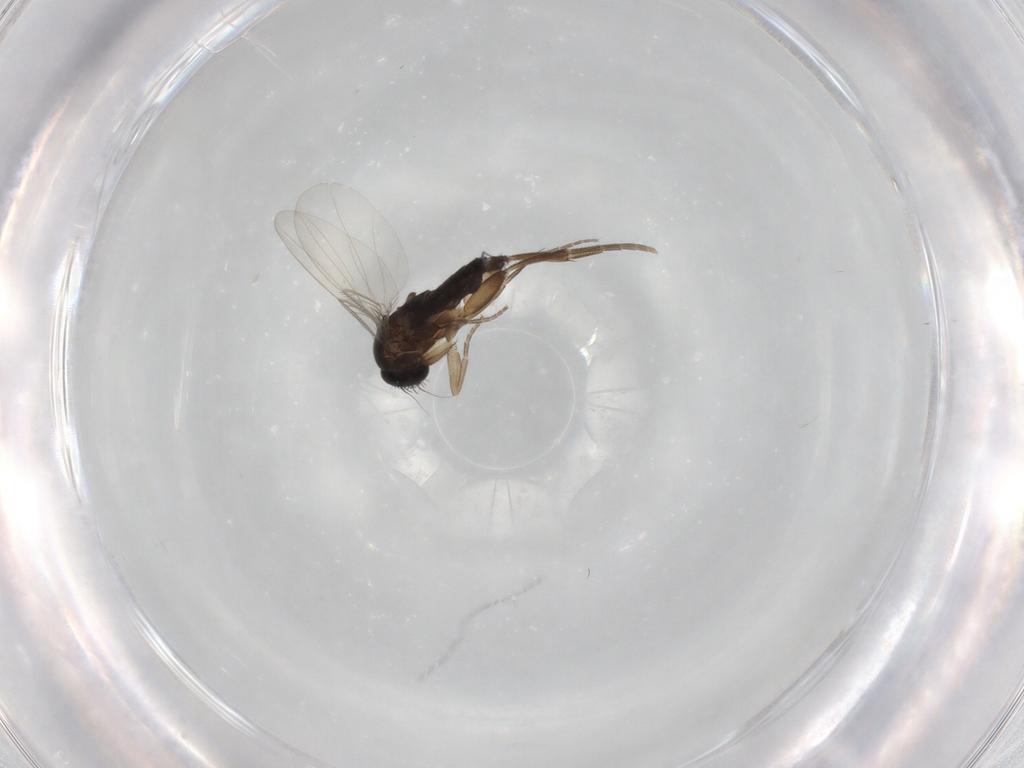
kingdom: Animalia
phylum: Arthropoda
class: Insecta
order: Diptera
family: Phoridae
